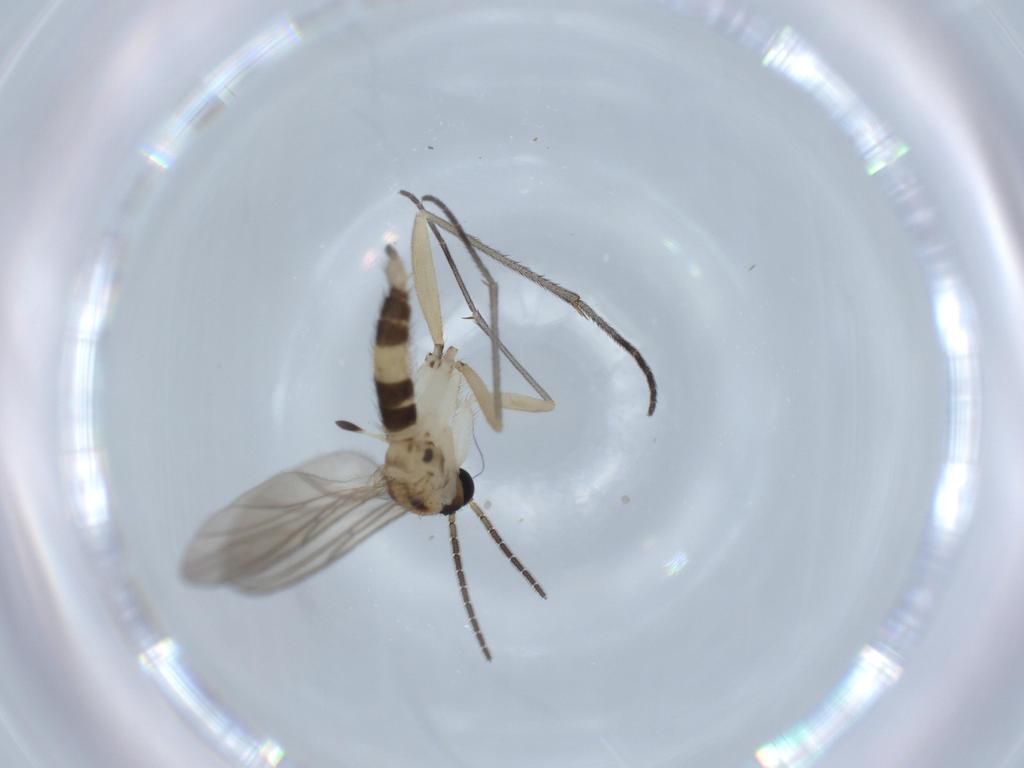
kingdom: Animalia
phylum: Arthropoda
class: Insecta
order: Diptera
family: Sciaridae
